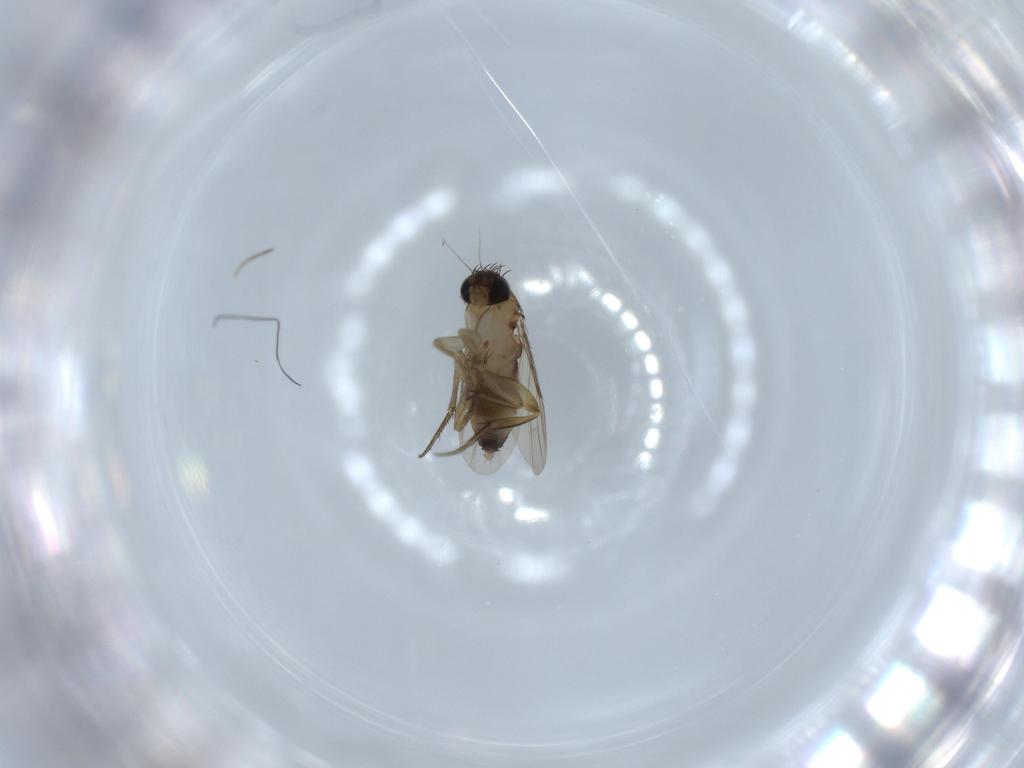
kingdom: Animalia
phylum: Arthropoda
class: Insecta
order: Diptera
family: Phoridae
